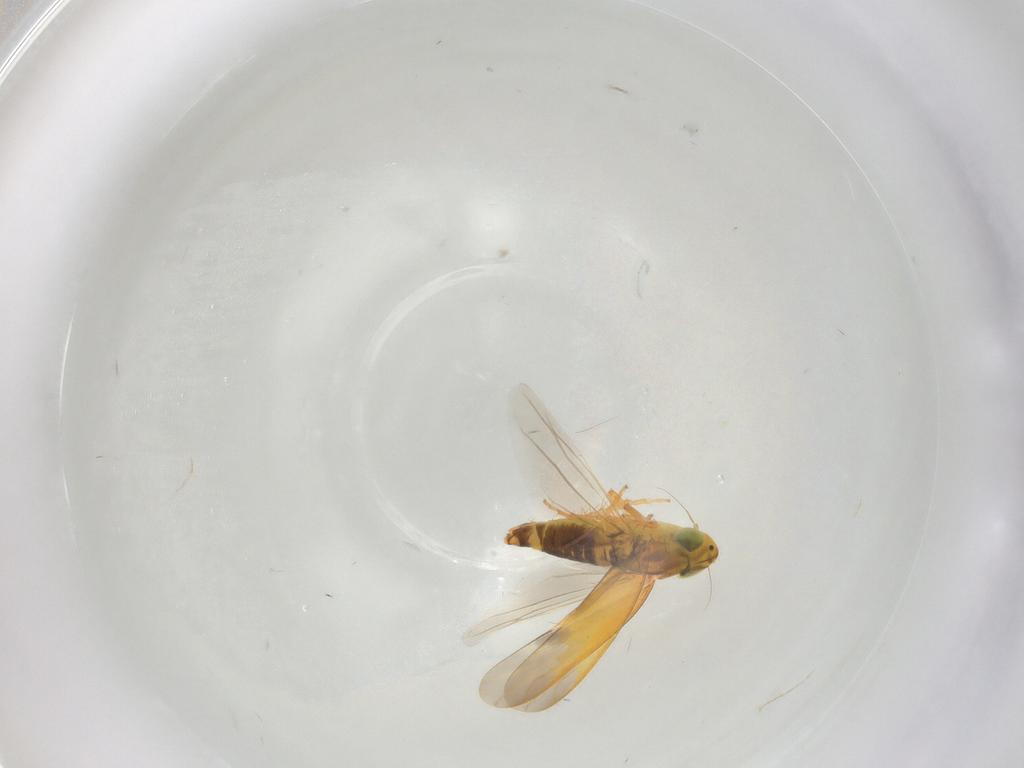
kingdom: Animalia
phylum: Arthropoda
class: Insecta
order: Hemiptera
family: Cicadellidae
